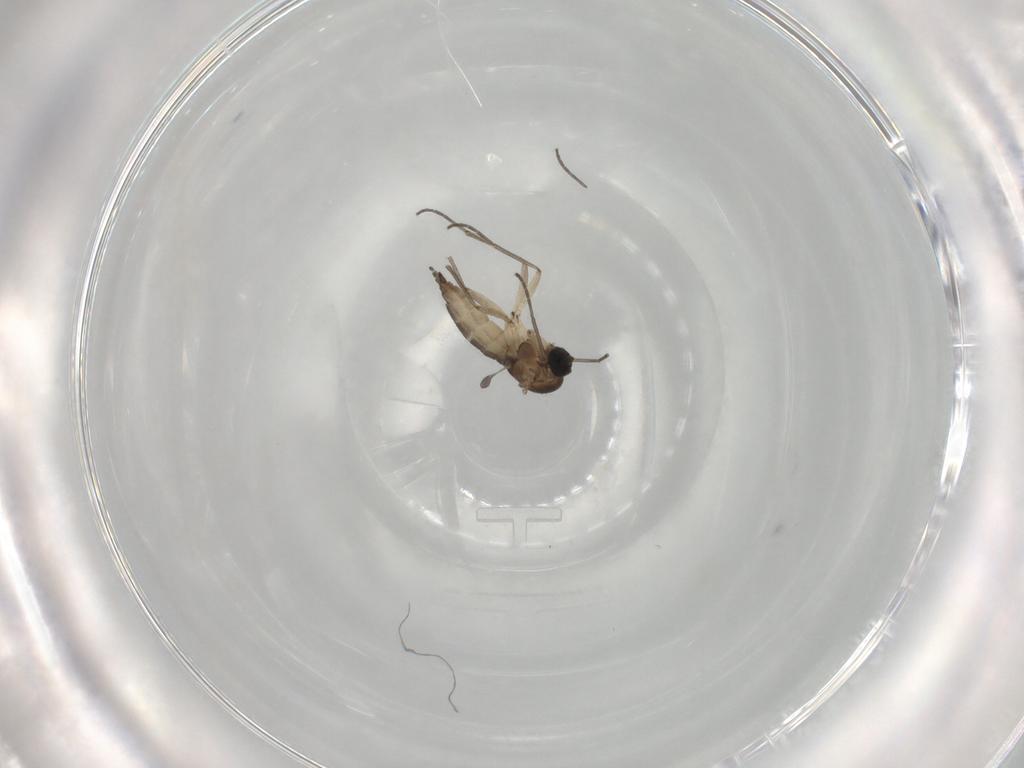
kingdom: Animalia
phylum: Arthropoda
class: Insecta
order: Diptera
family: Sciaridae
